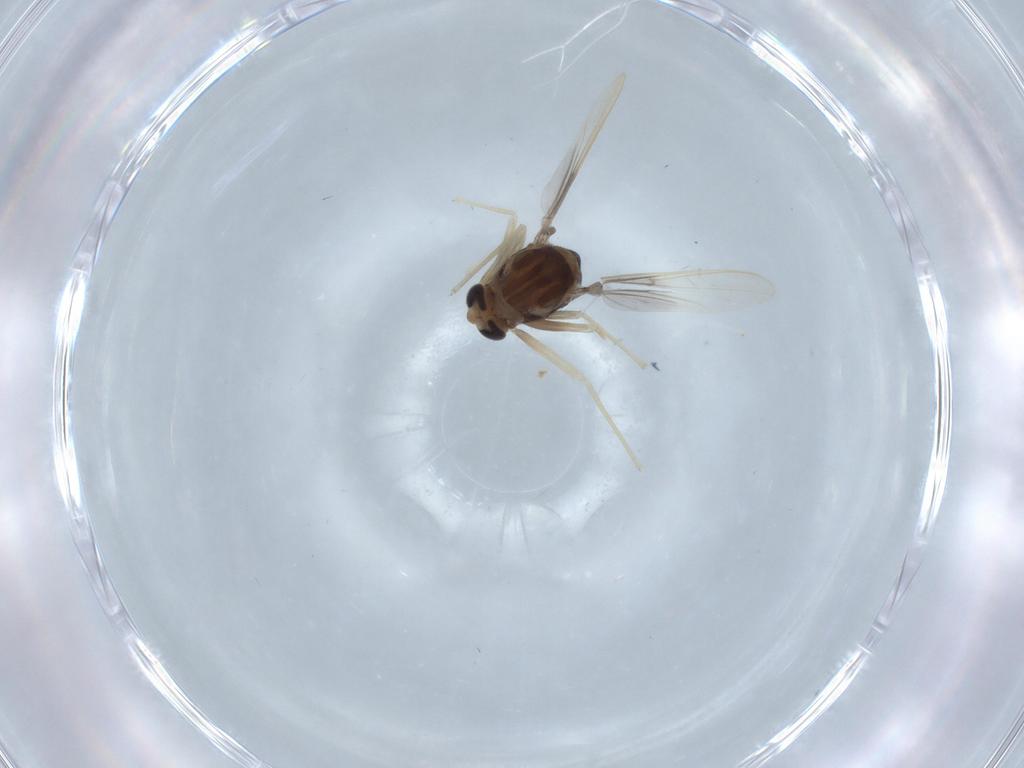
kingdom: Animalia
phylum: Arthropoda
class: Insecta
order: Diptera
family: Chironomidae
